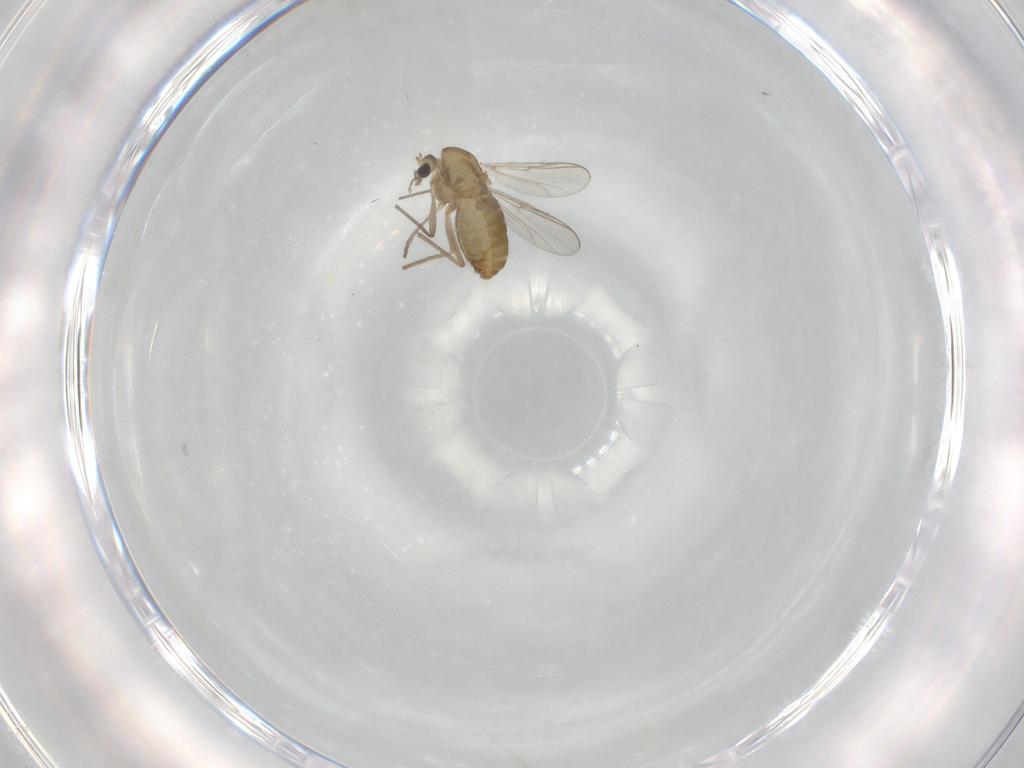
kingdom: Animalia
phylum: Arthropoda
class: Insecta
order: Diptera
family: Chironomidae
